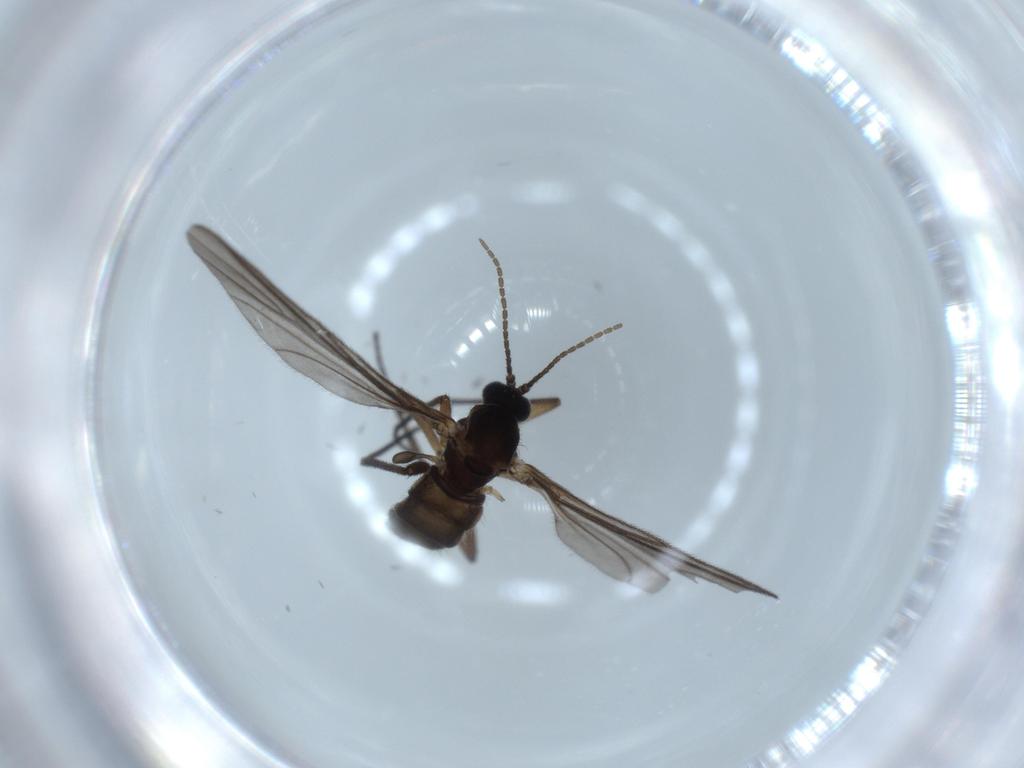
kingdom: Animalia
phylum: Arthropoda
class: Insecta
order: Diptera
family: Sciaridae
